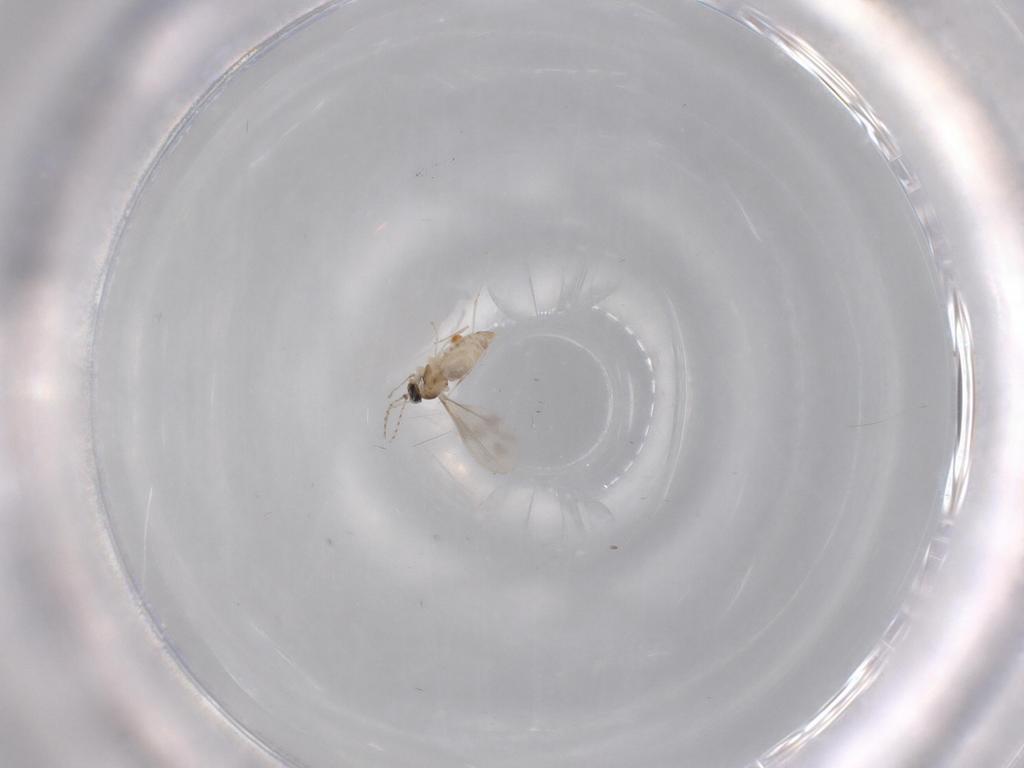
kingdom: Animalia
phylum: Arthropoda
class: Insecta
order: Diptera
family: Cecidomyiidae
